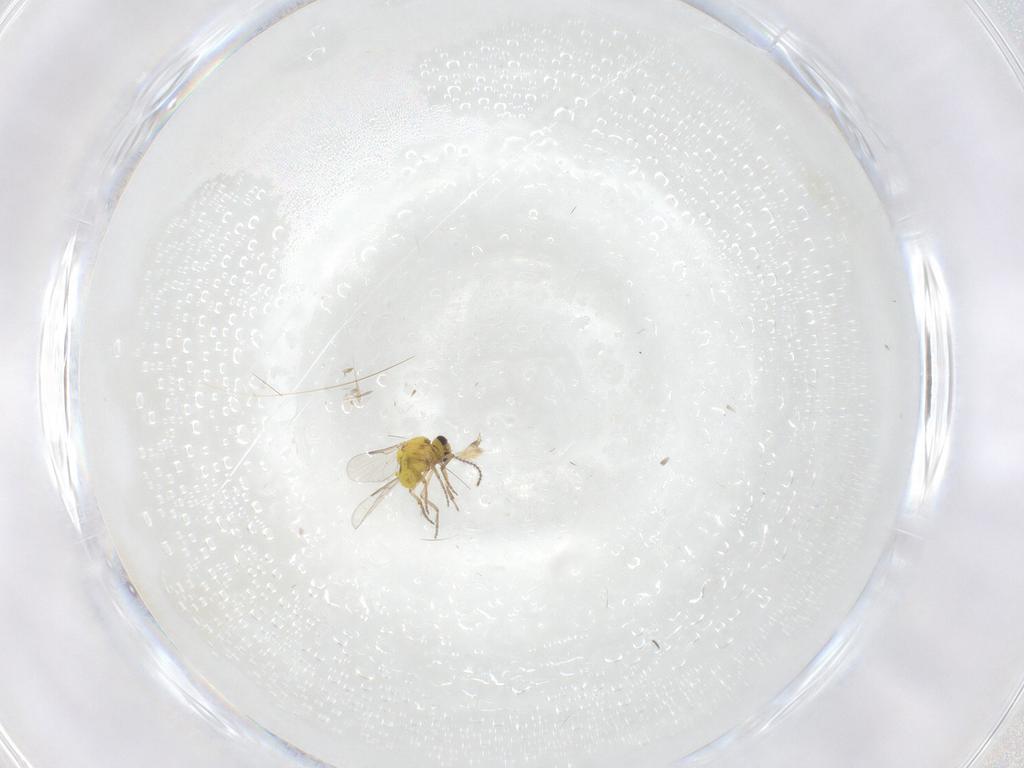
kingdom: Animalia
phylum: Arthropoda
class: Insecta
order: Diptera
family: Ceratopogonidae
